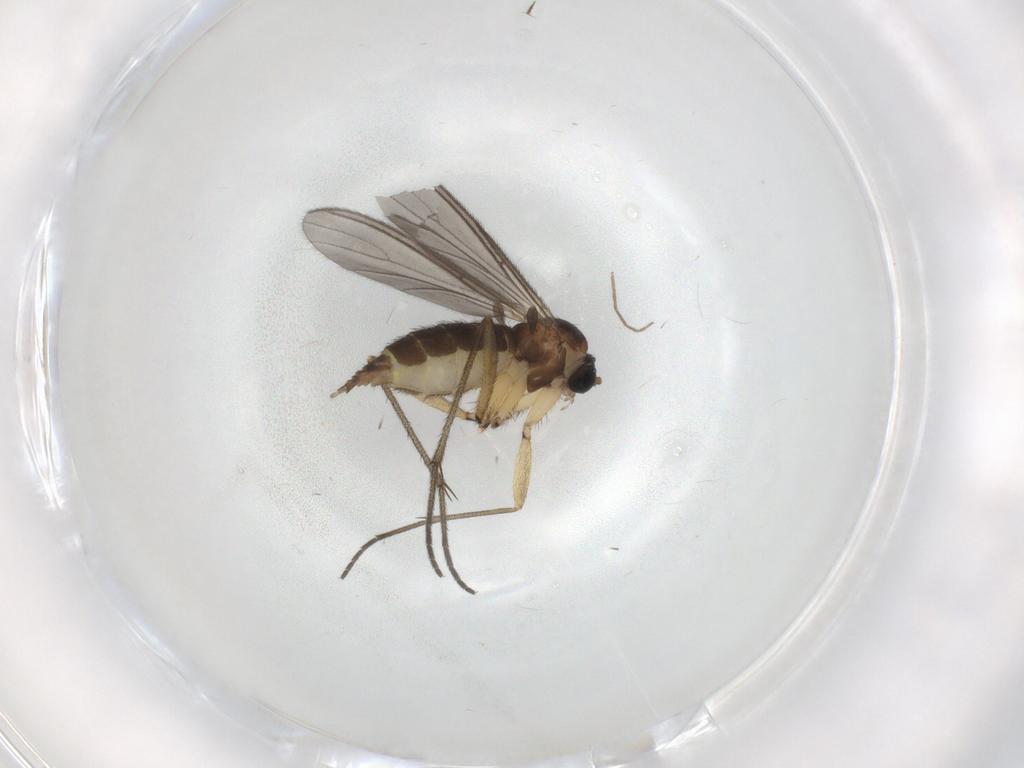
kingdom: Animalia
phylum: Arthropoda
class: Insecta
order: Diptera
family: Sciaridae
